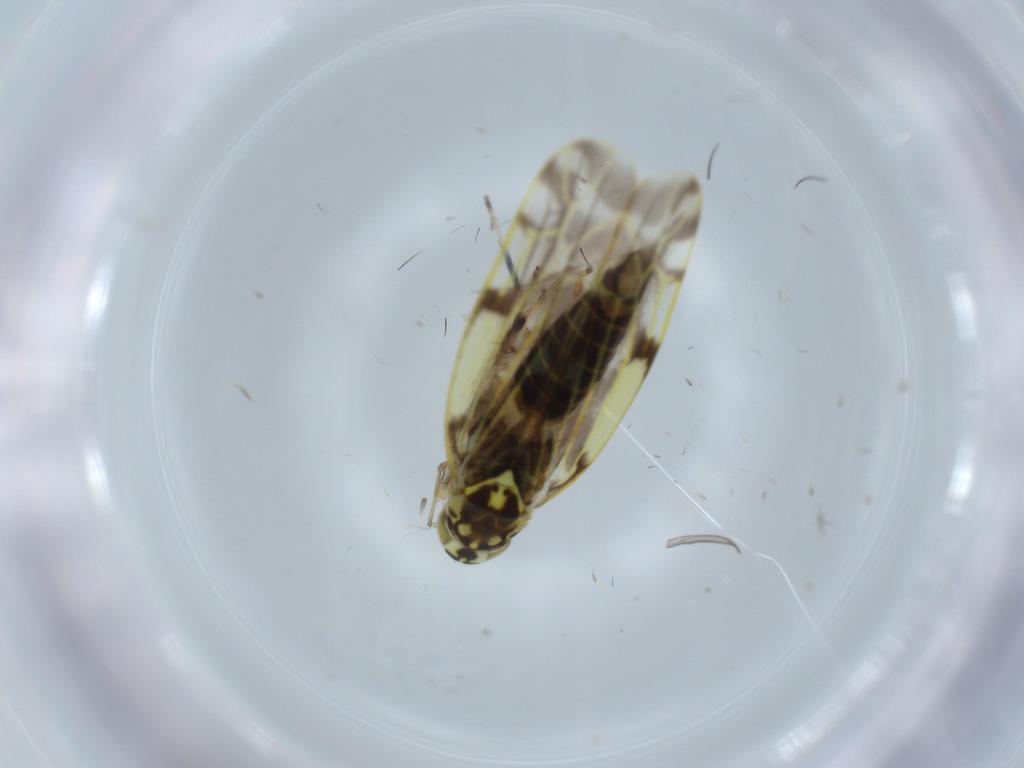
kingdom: Animalia
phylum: Arthropoda
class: Insecta
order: Hemiptera
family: Cicadellidae
